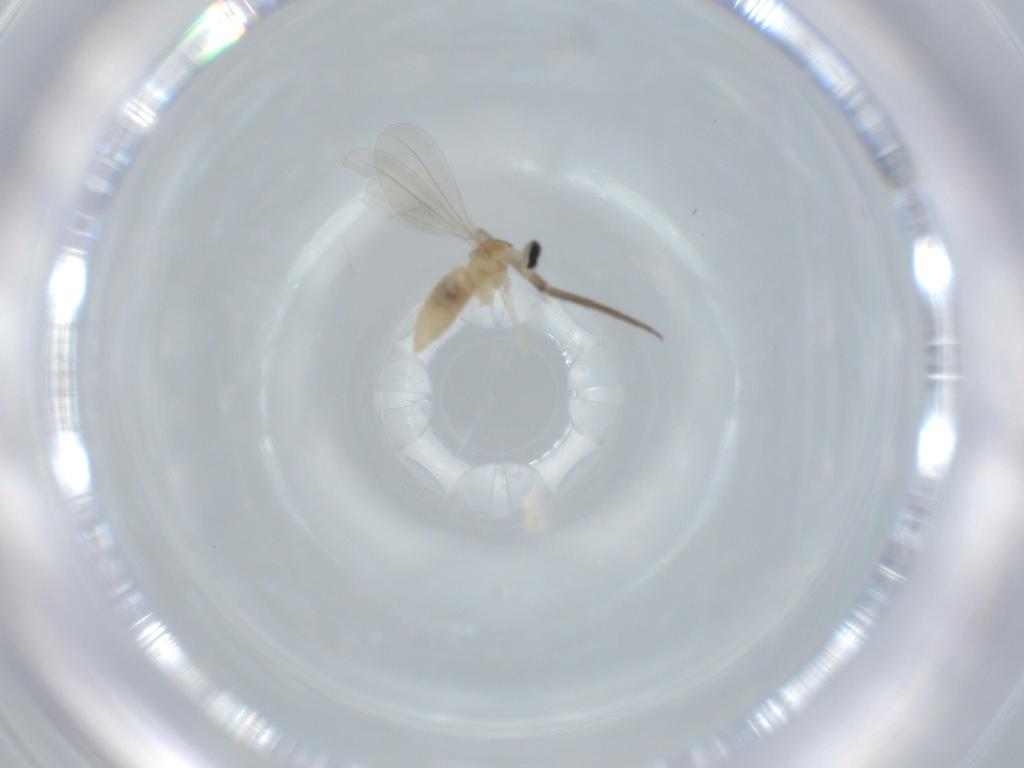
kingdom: Animalia
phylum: Arthropoda
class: Insecta
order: Diptera
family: Cecidomyiidae
